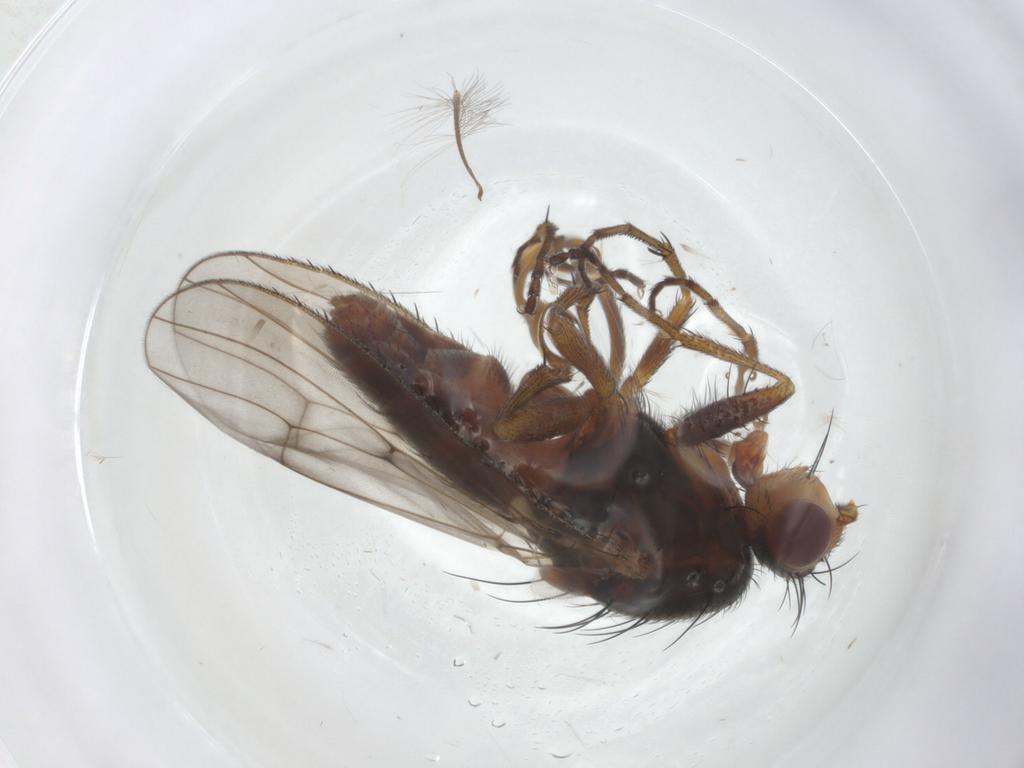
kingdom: Animalia
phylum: Arthropoda
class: Insecta
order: Diptera
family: Heleomyzidae
